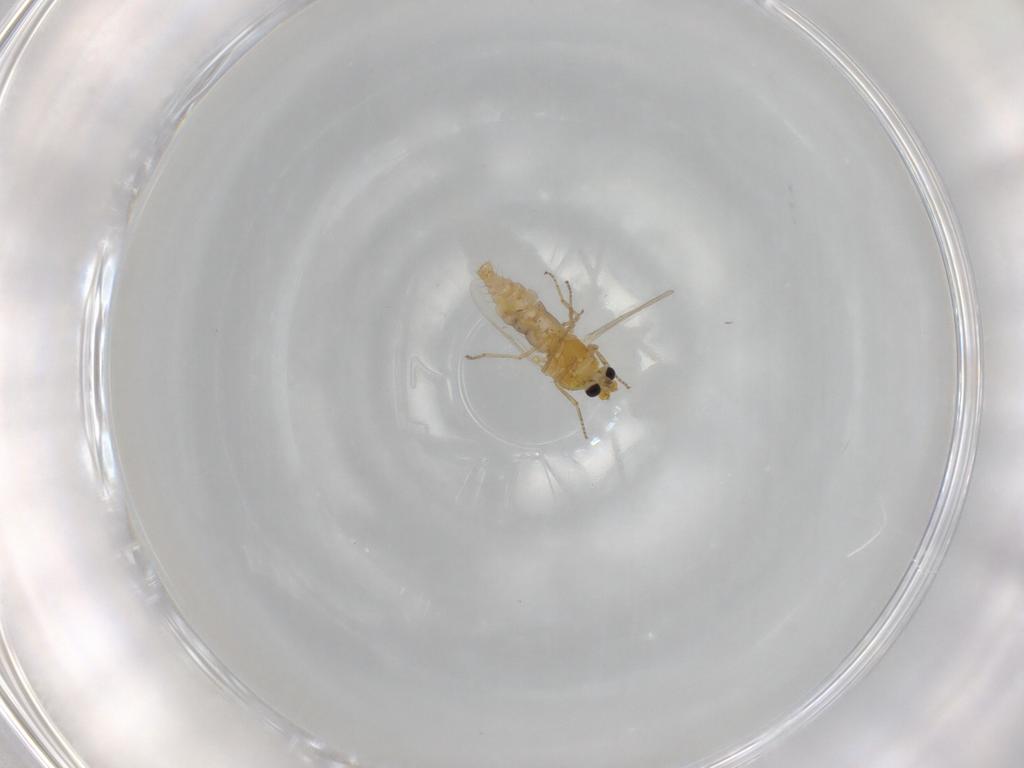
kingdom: Animalia
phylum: Arthropoda
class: Insecta
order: Diptera
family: Ceratopogonidae
